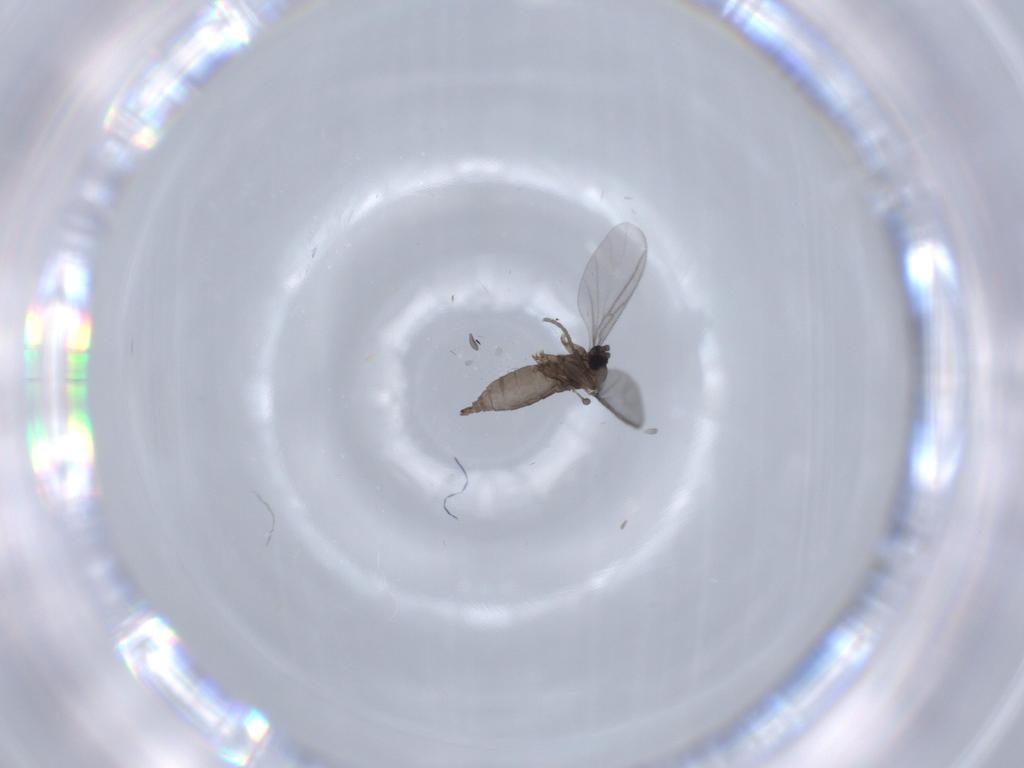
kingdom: Animalia
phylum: Arthropoda
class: Insecta
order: Diptera
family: Sciaridae
